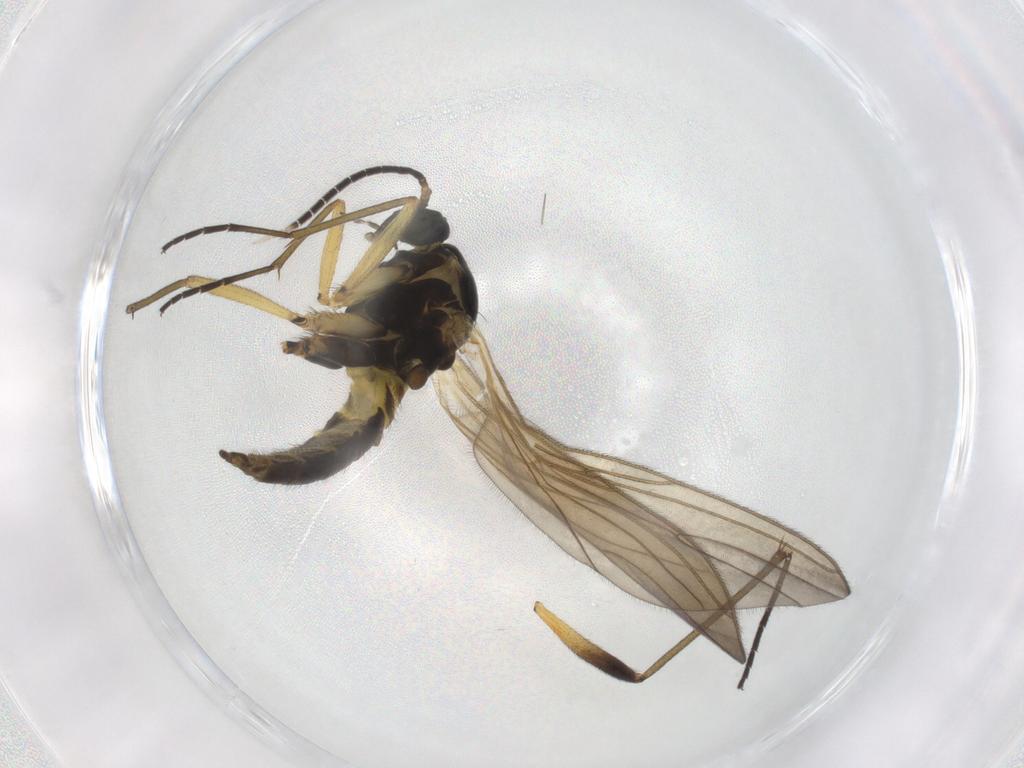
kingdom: Animalia
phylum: Arthropoda
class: Insecta
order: Diptera
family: Sciaridae
